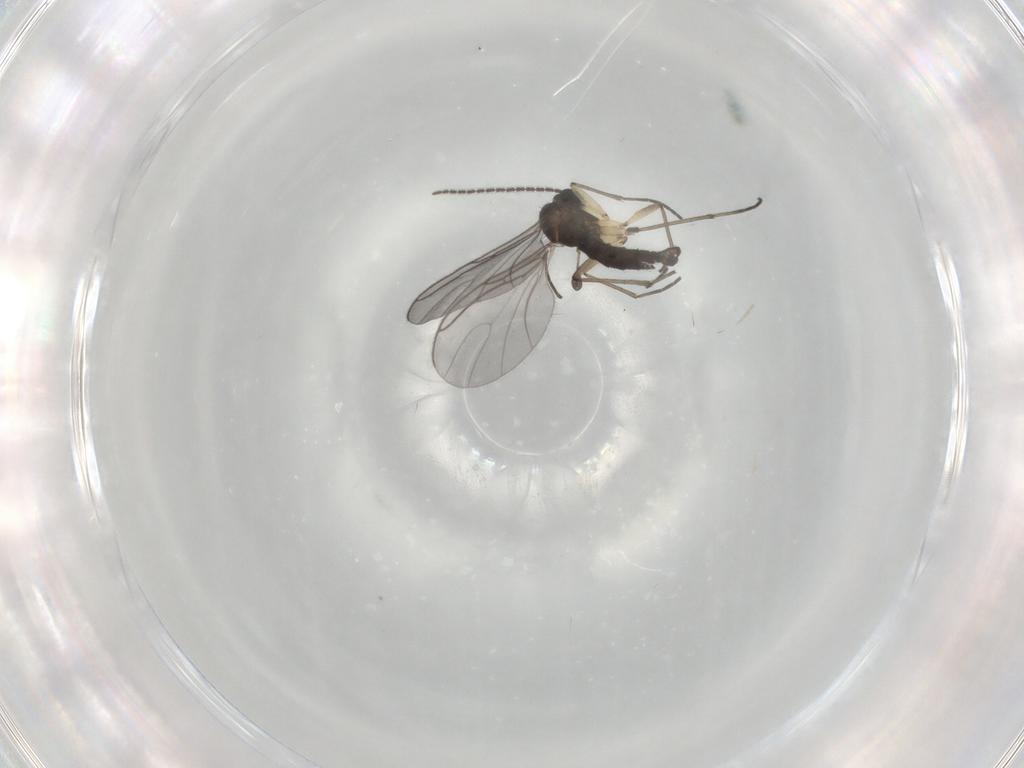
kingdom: Animalia
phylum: Arthropoda
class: Insecta
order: Diptera
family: Sciaridae
